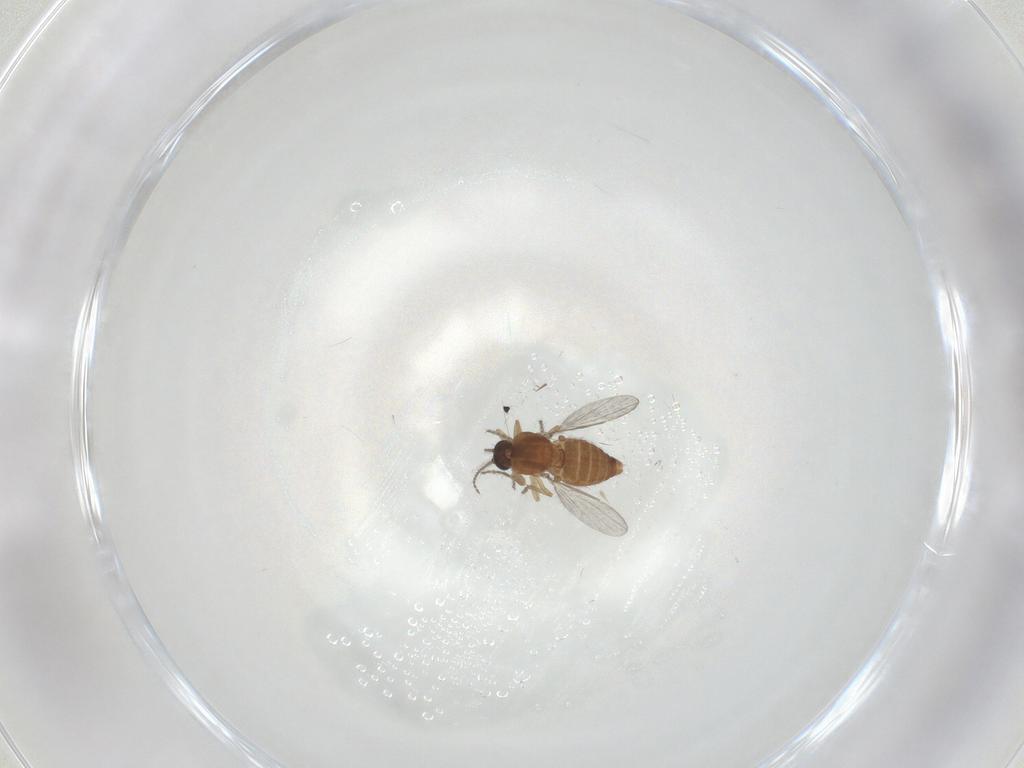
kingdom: Animalia
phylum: Arthropoda
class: Insecta
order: Diptera
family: Ceratopogonidae
